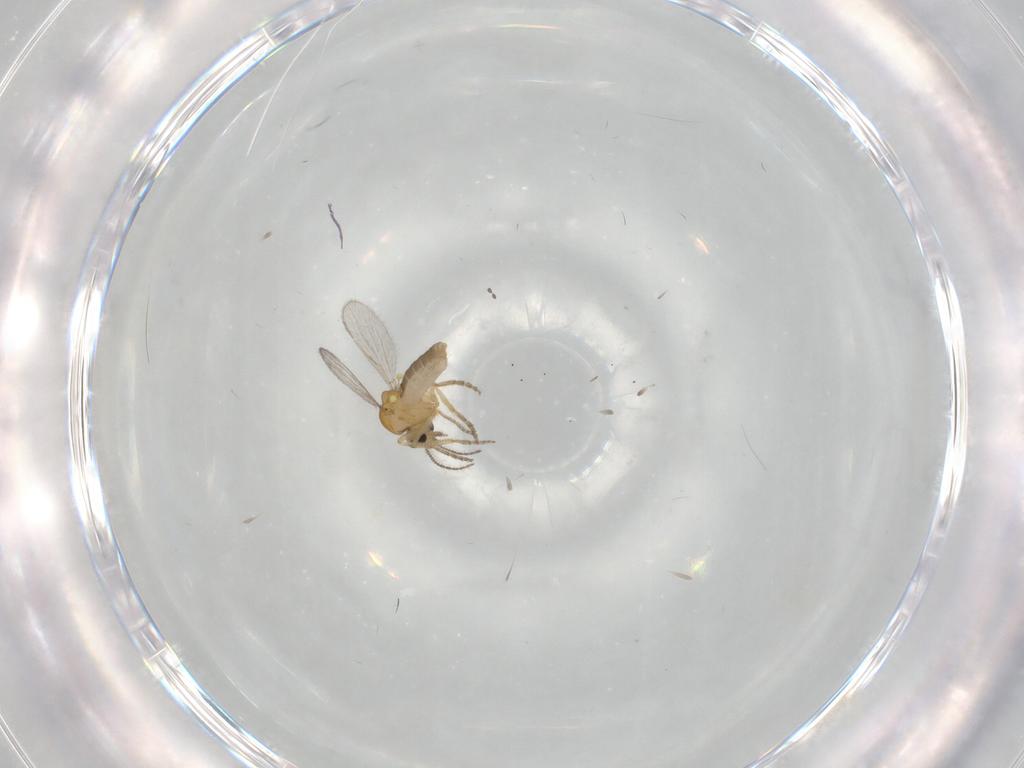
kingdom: Animalia
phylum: Arthropoda
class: Insecta
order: Diptera
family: Ceratopogonidae
